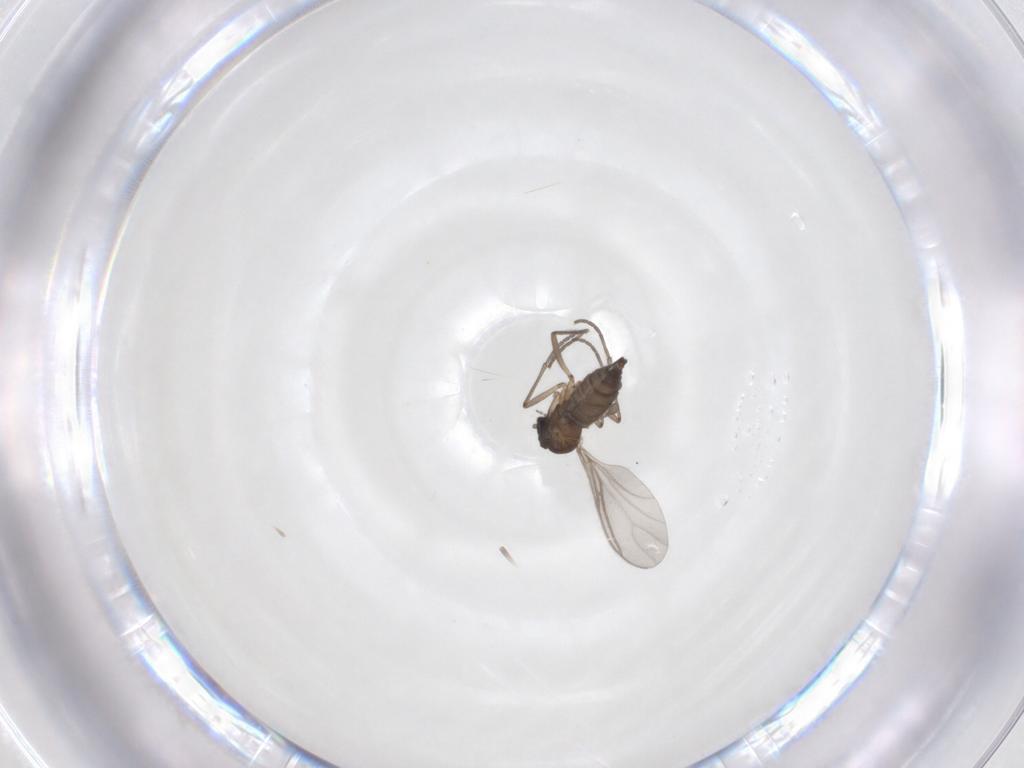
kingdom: Animalia
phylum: Arthropoda
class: Insecta
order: Diptera
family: Sciaridae
